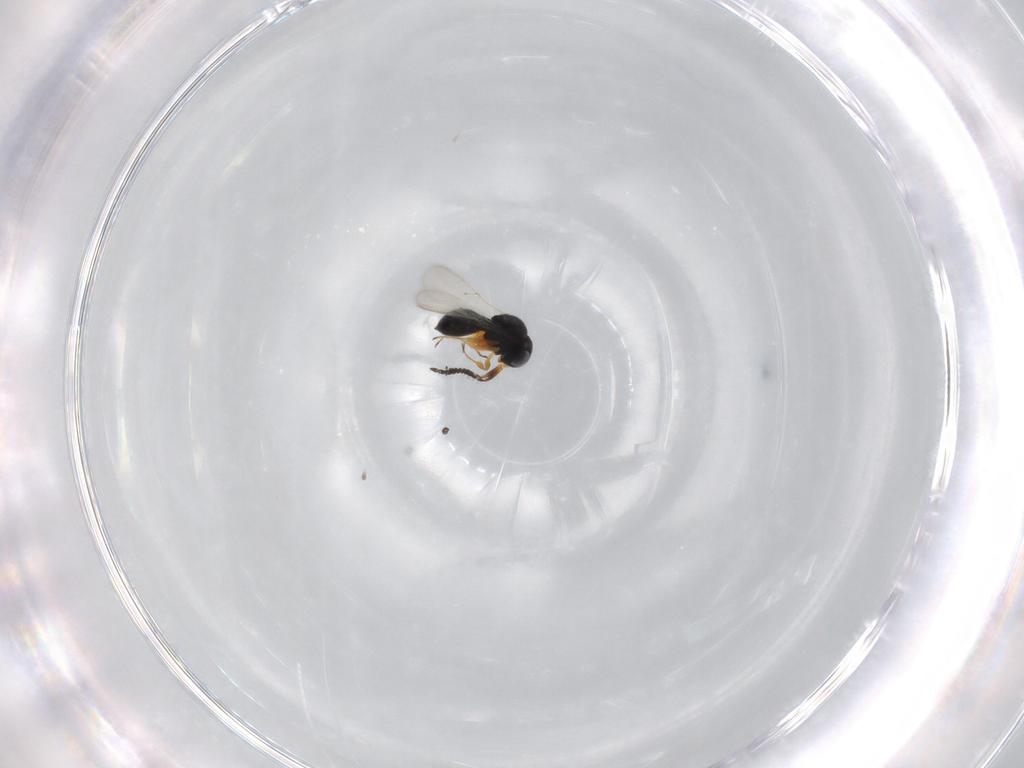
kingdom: Animalia
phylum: Arthropoda
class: Insecta
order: Hymenoptera
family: Scelionidae
